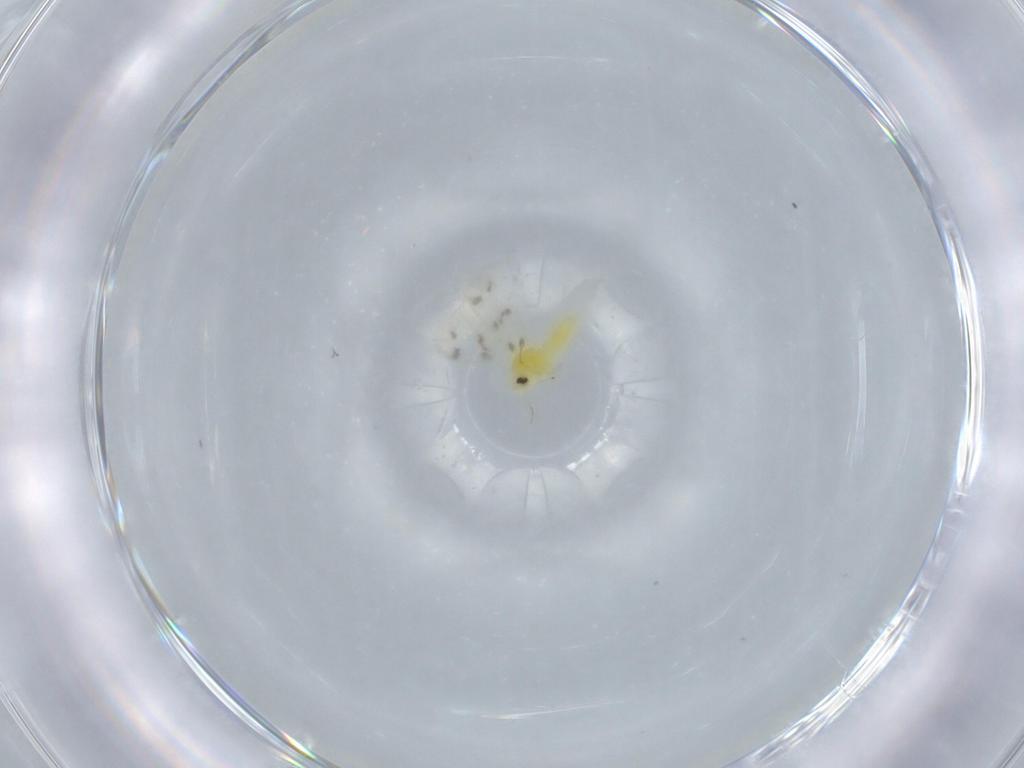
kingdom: Animalia
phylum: Arthropoda
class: Insecta
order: Hemiptera
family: Aleyrodidae
